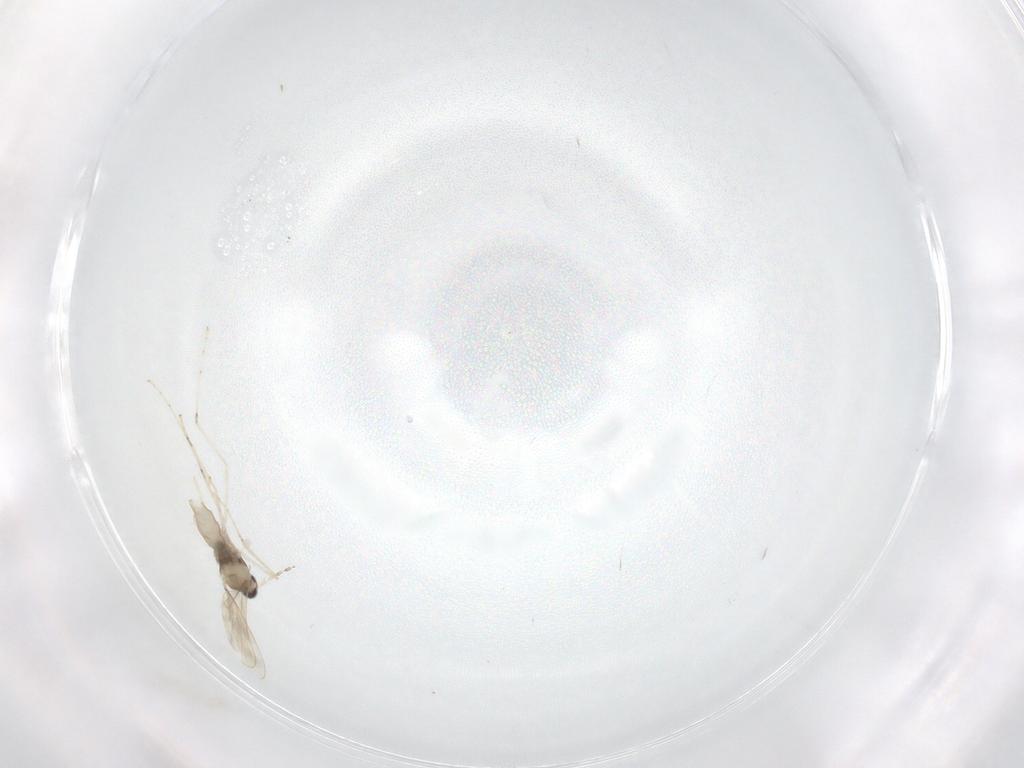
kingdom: Animalia
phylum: Arthropoda
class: Insecta
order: Diptera
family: Cecidomyiidae
